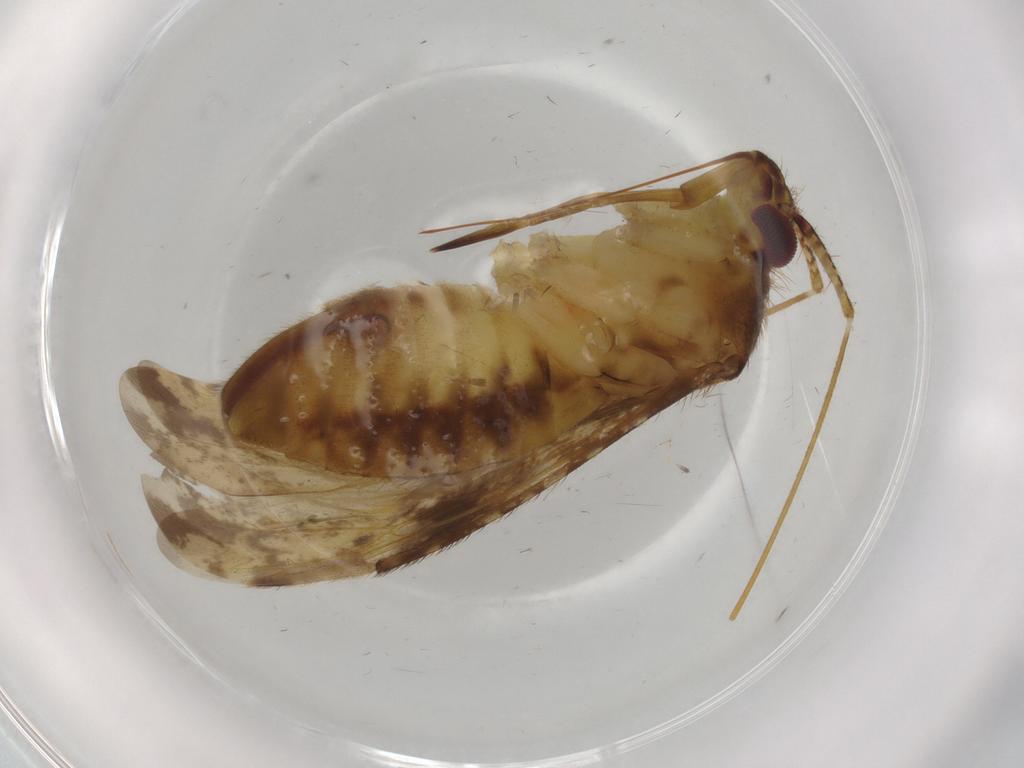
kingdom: Animalia
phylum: Arthropoda
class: Insecta
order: Hemiptera
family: Miridae
